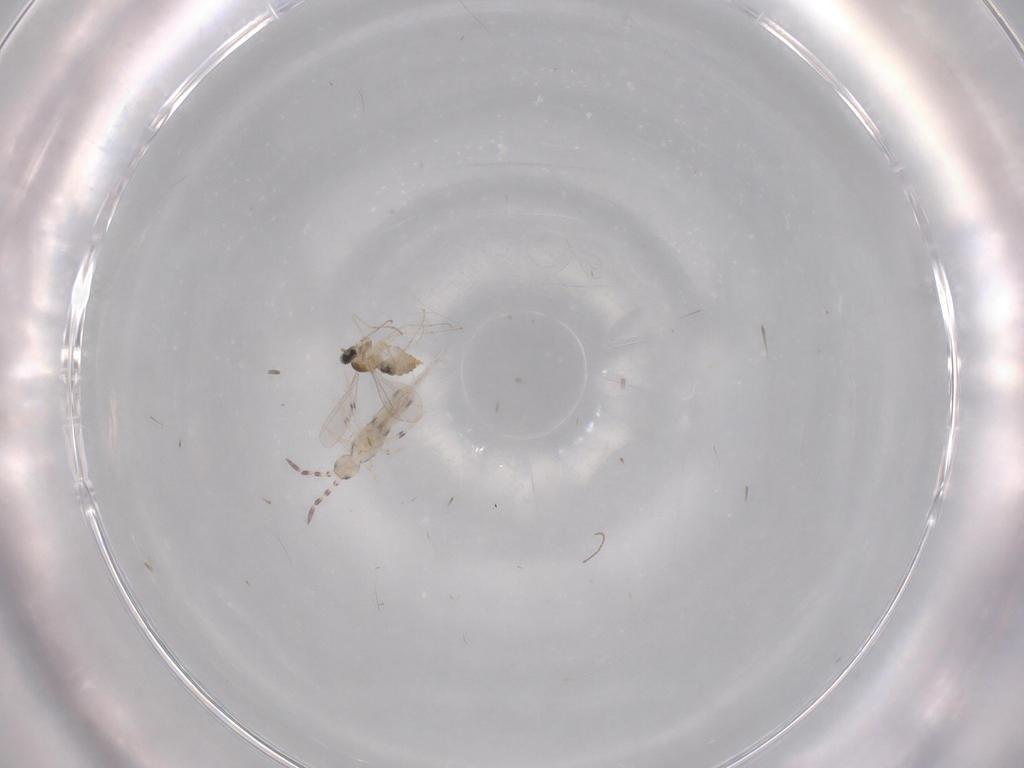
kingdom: Animalia
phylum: Arthropoda
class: Insecta
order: Diptera
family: Cecidomyiidae
